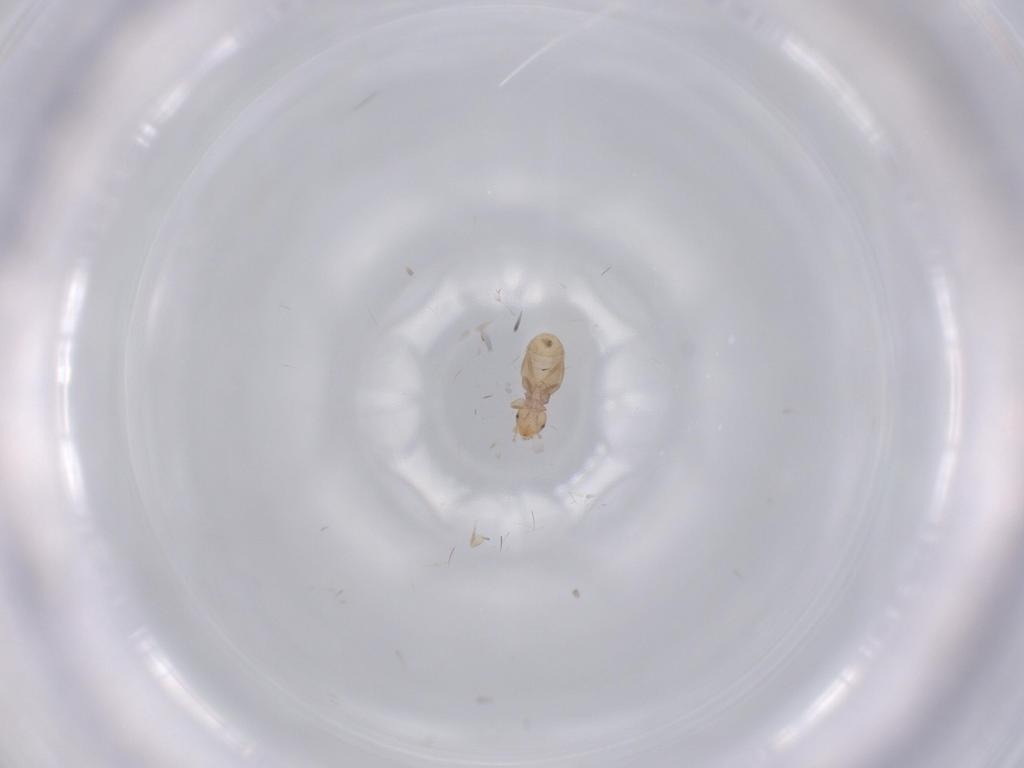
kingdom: Animalia
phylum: Arthropoda
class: Insecta
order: Psocodea
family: Liposcelididae
